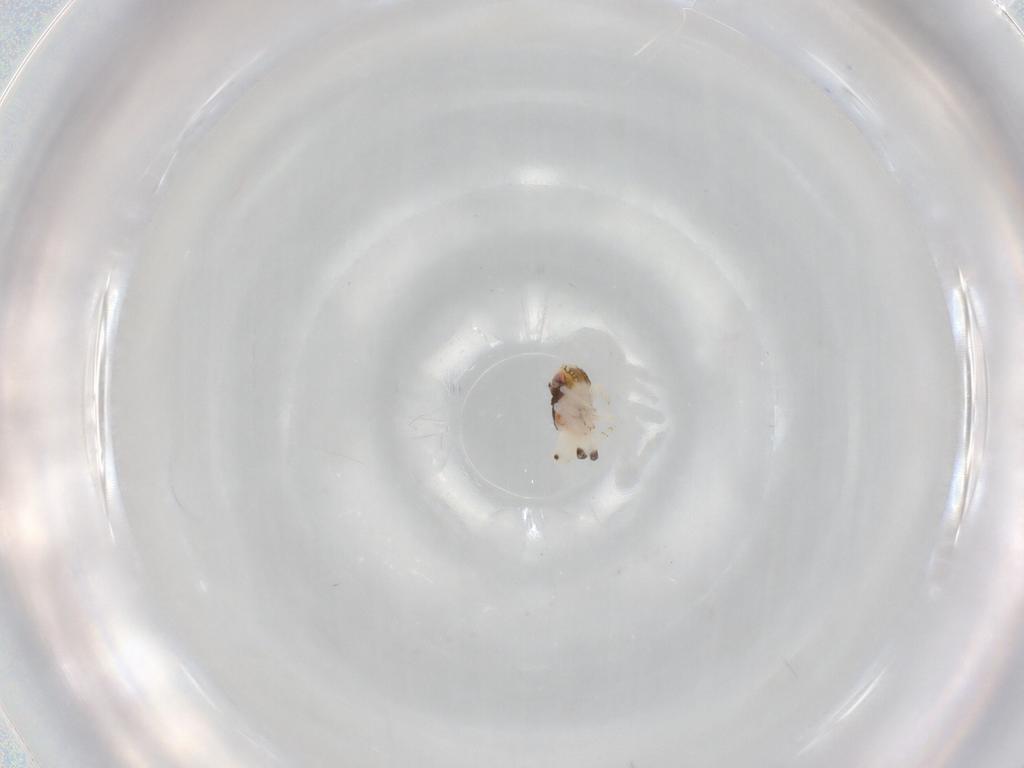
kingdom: Animalia
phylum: Arthropoda
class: Insecta
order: Hemiptera
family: Nogodinidae
